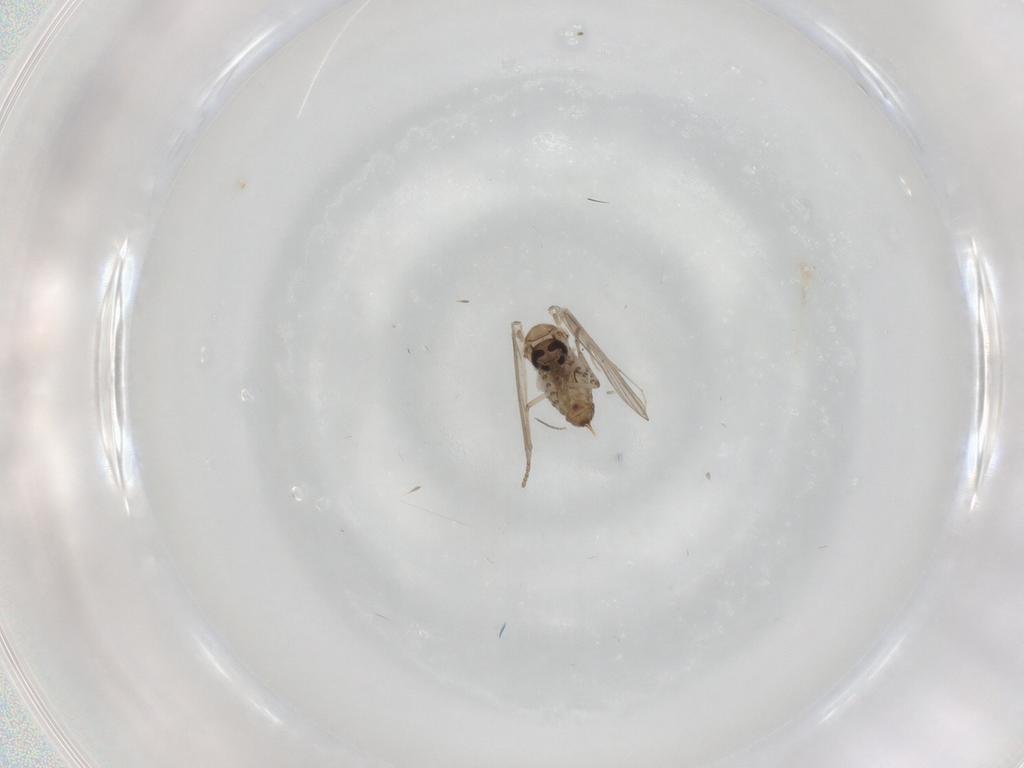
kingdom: Animalia
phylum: Arthropoda
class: Insecta
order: Diptera
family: Psychodidae
